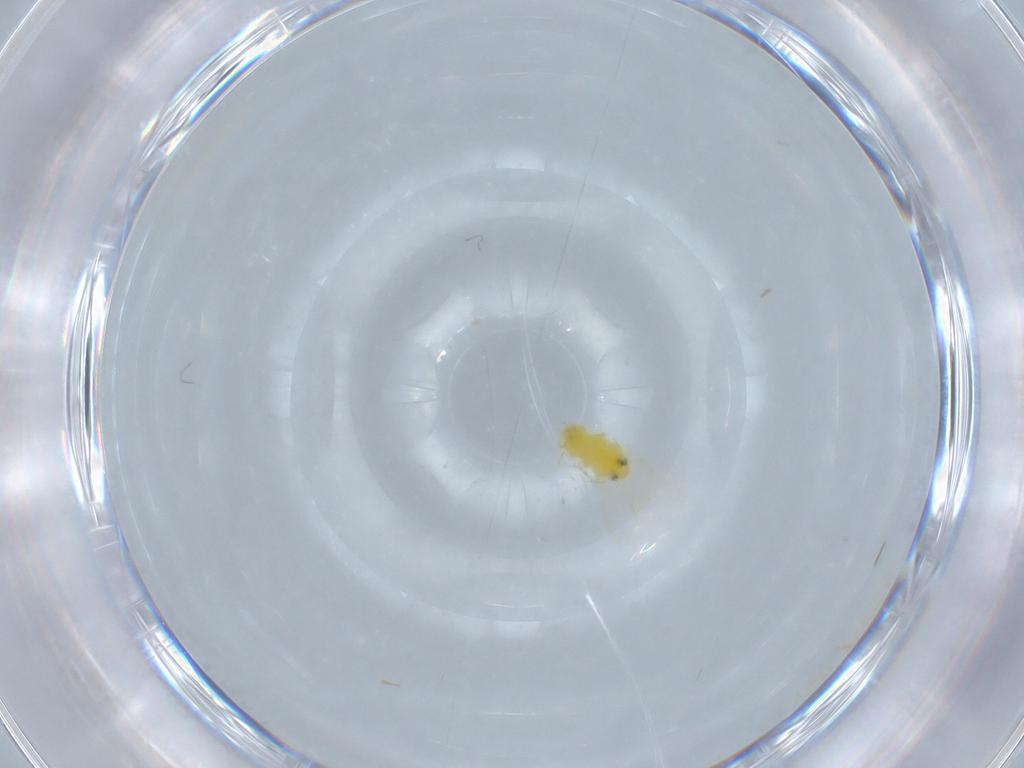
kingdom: Animalia
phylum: Arthropoda
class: Insecta
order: Hemiptera
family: Aleyrodidae
